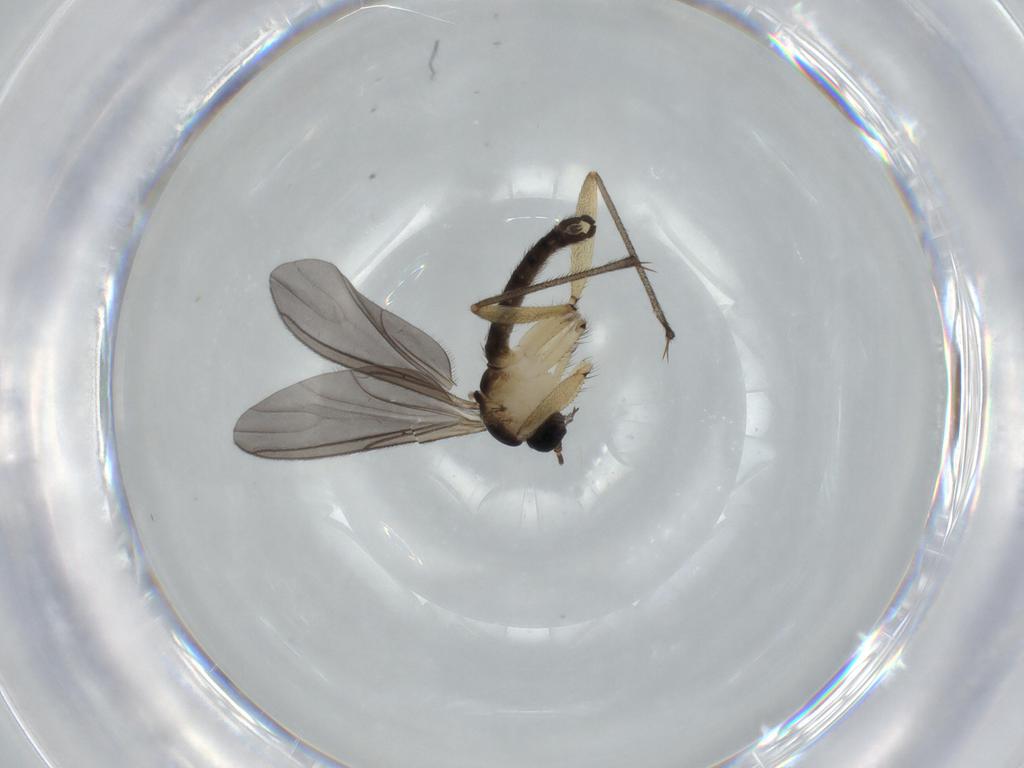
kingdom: Animalia
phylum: Arthropoda
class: Insecta
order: Diptera
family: Sciaridae
